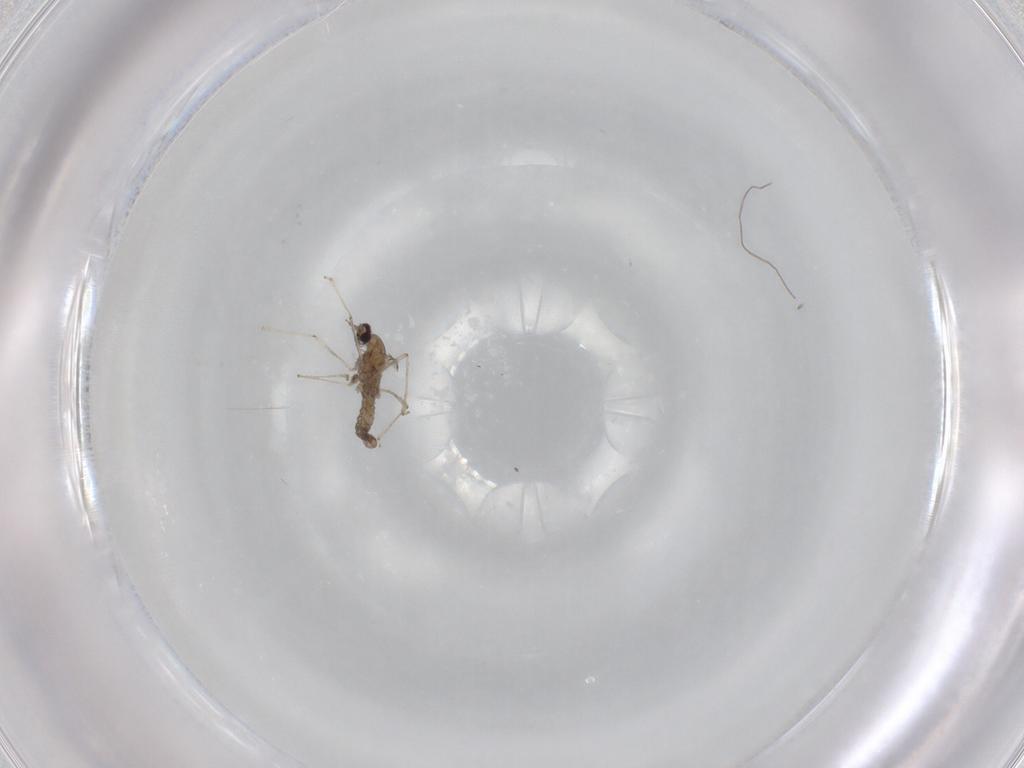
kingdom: Animalia
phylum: Arthropoda
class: Insecta
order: Diptera
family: Cecidomyiidae
